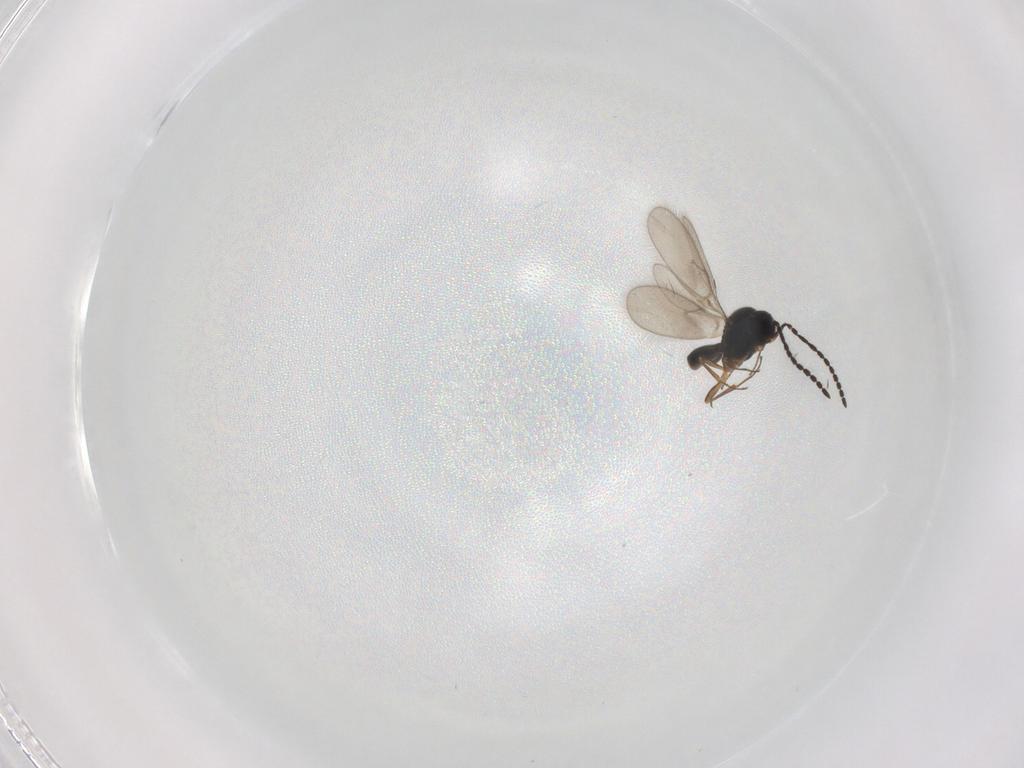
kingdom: Animalia
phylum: Arthropoda
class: Insecta
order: Hymenoptera
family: Scelionidae
